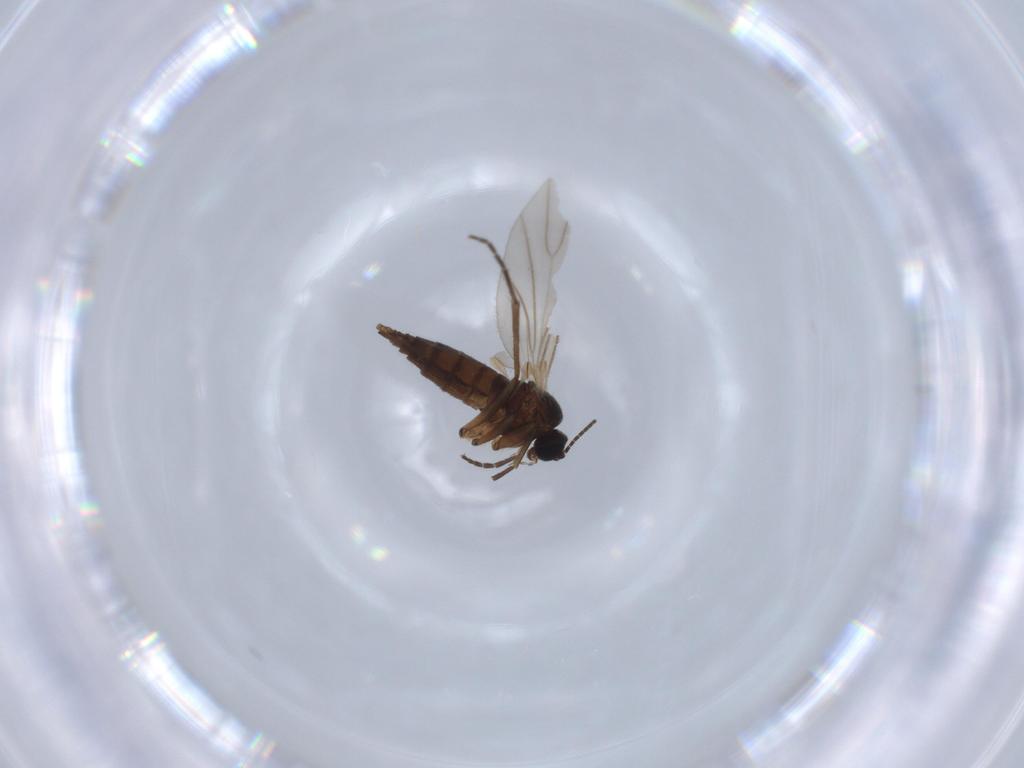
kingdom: Animalia
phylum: Arthropoda
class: Insecta
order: Diptera
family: Sciaridae
